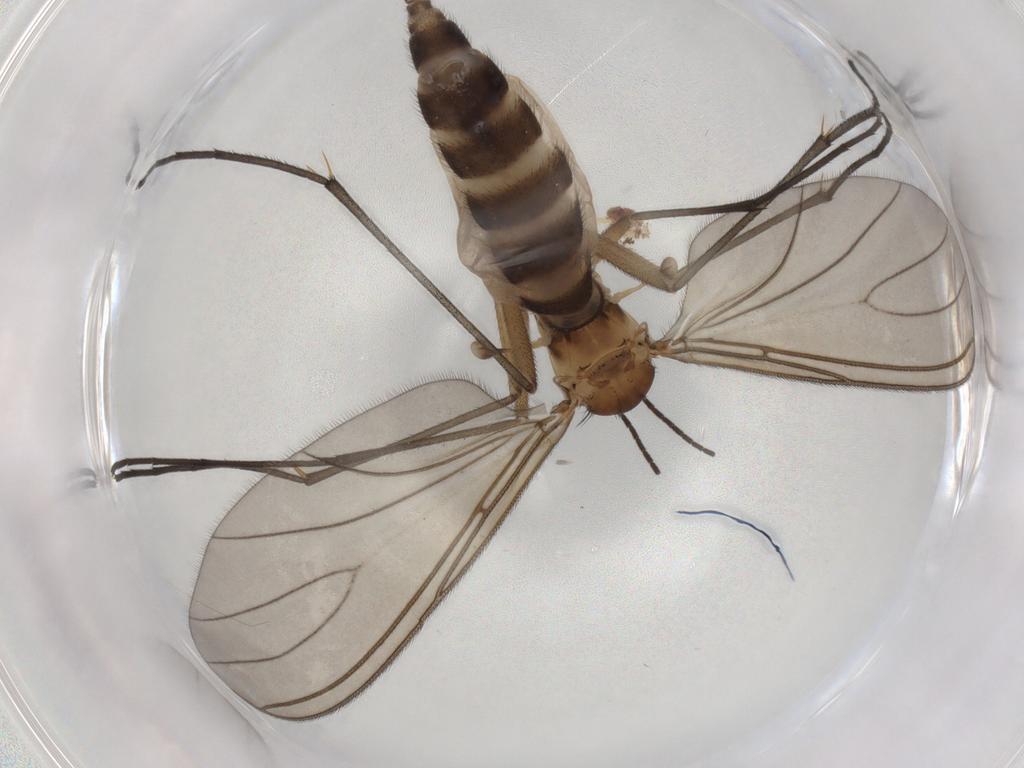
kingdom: Animalia
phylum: Arthropoda
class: Insecta
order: Diptera
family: Sciaridae
